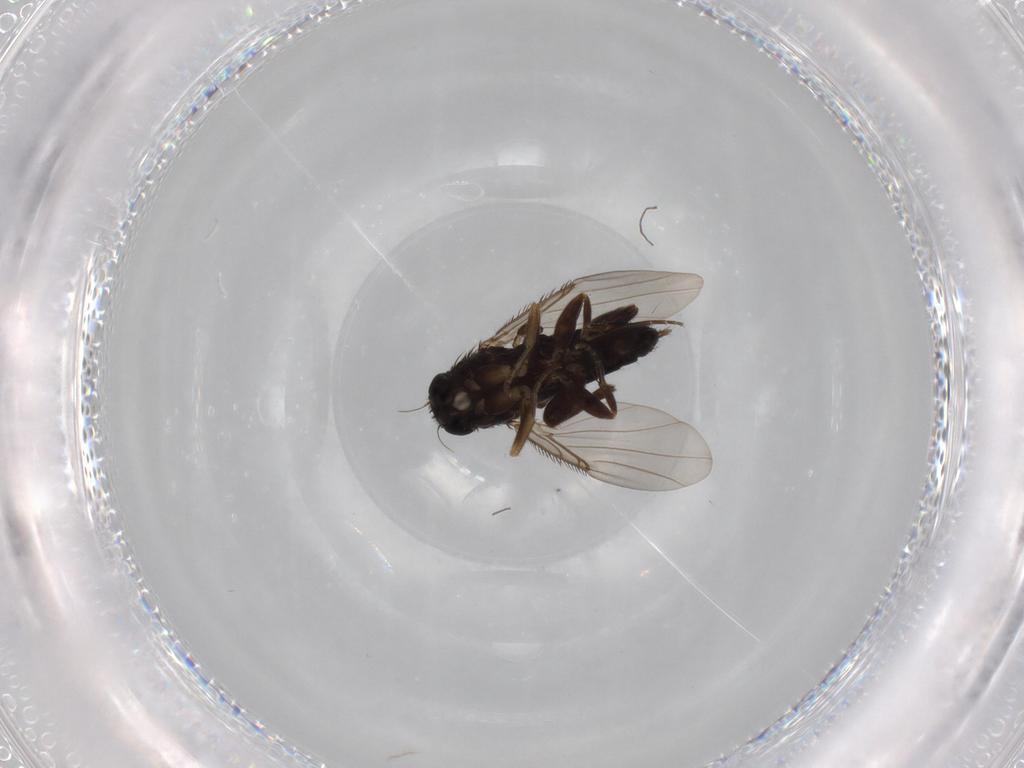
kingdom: Animalia
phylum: Arthropoda
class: Insecta
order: Diptera
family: Phoridae
